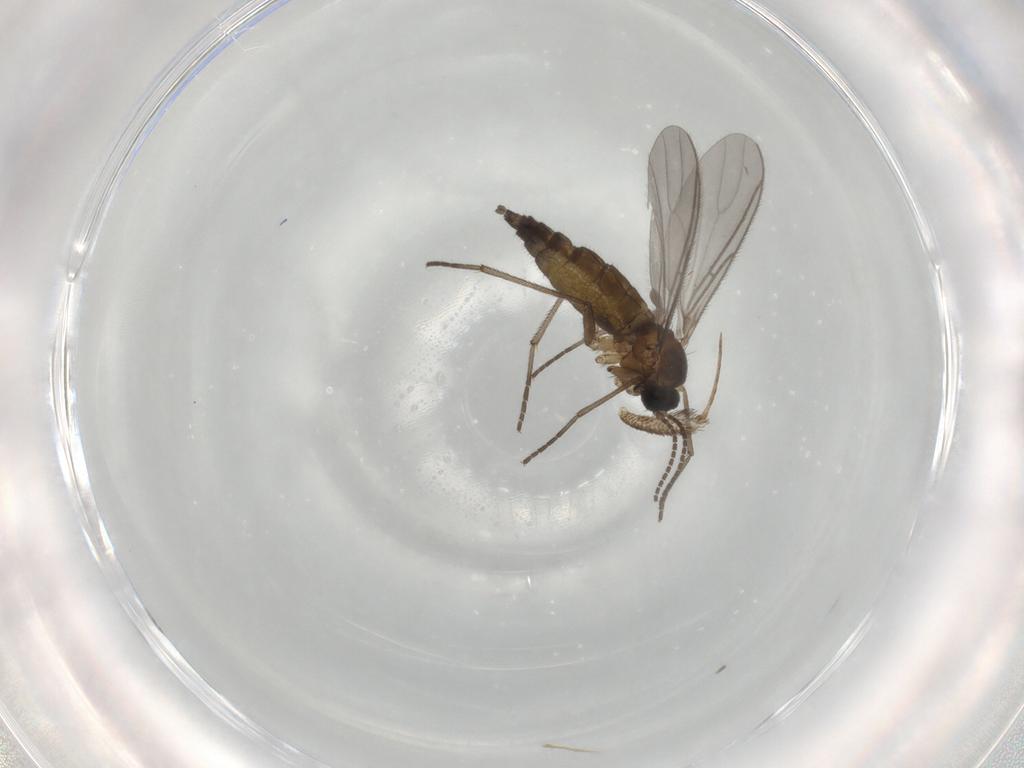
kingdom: Animalia
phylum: Arthropoda
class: Insecta
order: Diptera
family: Sciaridae
